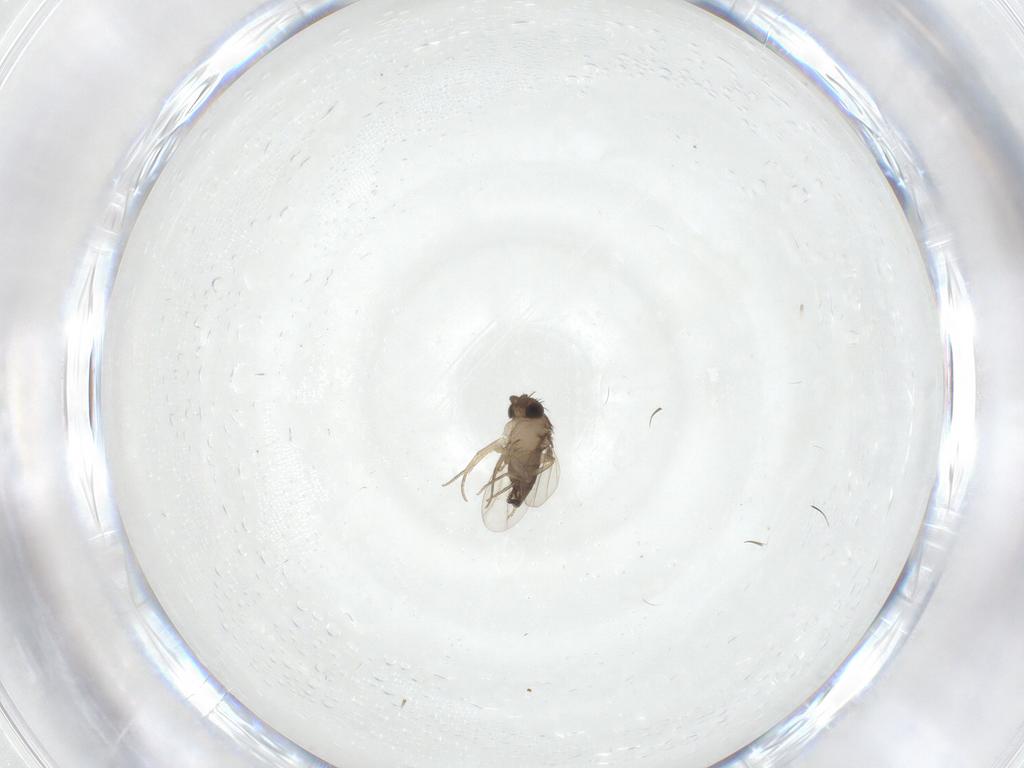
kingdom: Animalia
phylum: Arthropoda
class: Insecta
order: Diptera
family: Phoridae
